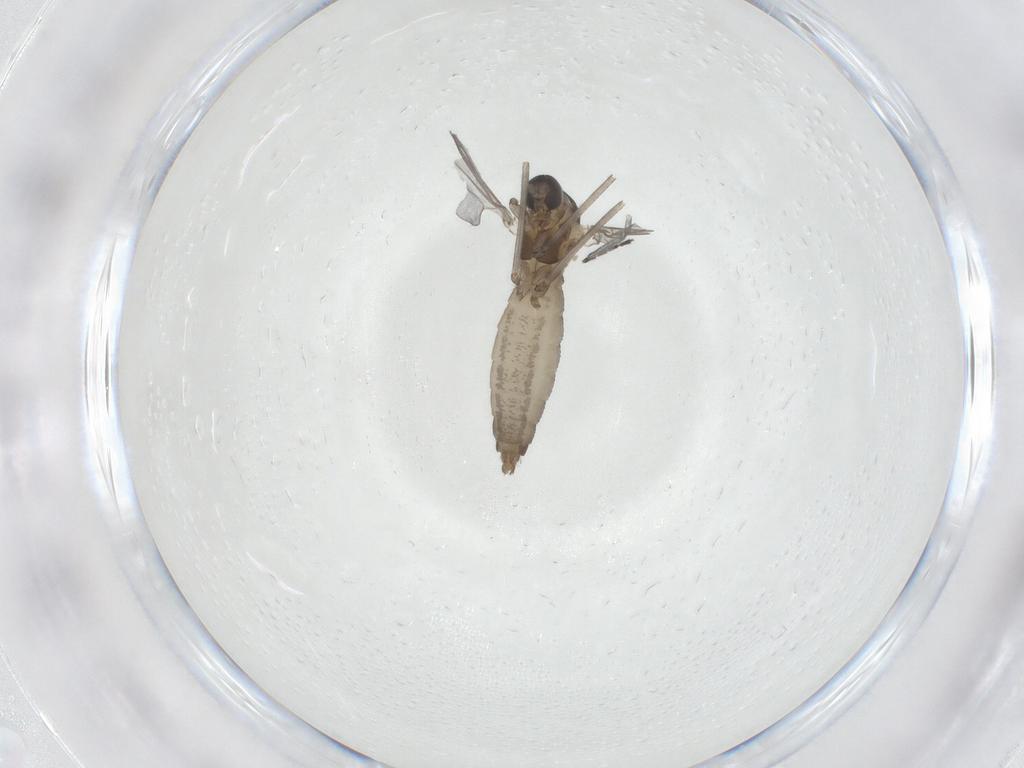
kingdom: Animalia
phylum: Arthropoda
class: Insecta
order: Diptera
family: Cecidomyiidae
